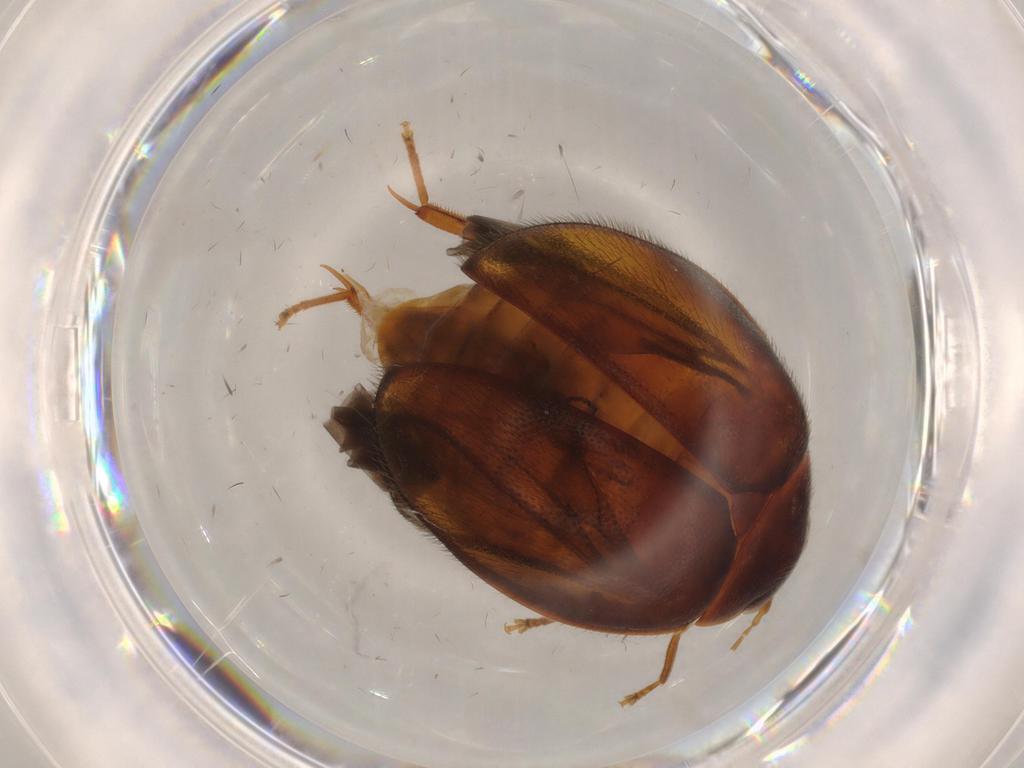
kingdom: Animalia
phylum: Arthropoda
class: Insecta
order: Coleoptera
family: Scirtidae
